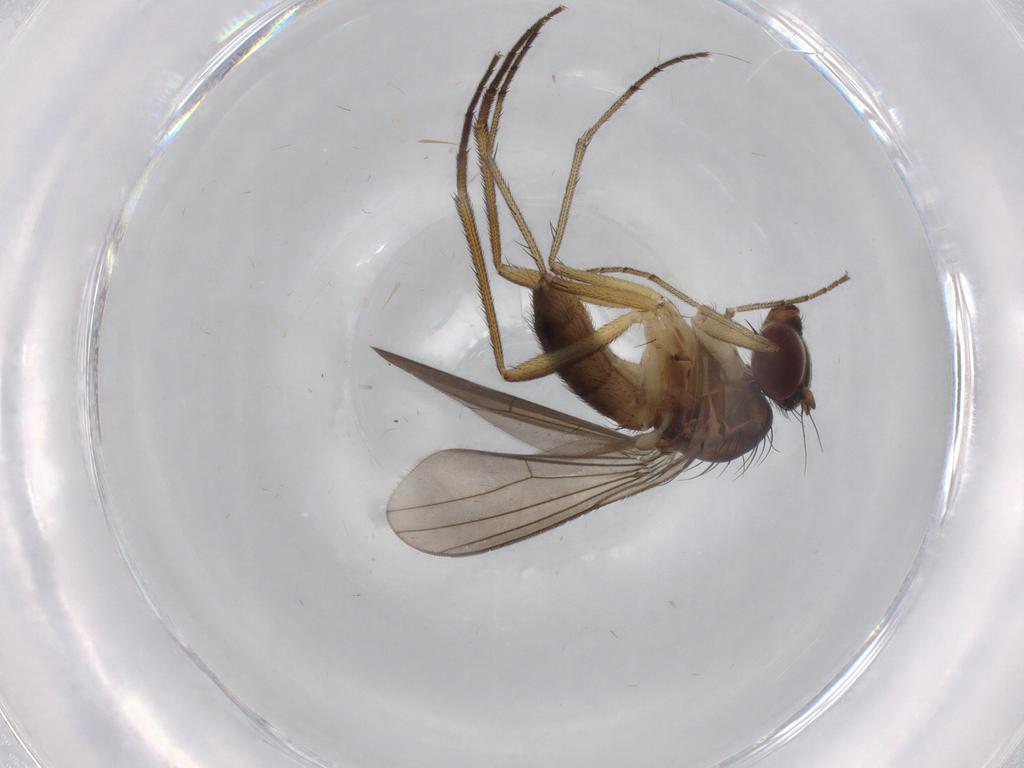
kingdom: Animalia
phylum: Arthropoda
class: Insecta
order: Diptera
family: Dolichopodidae
